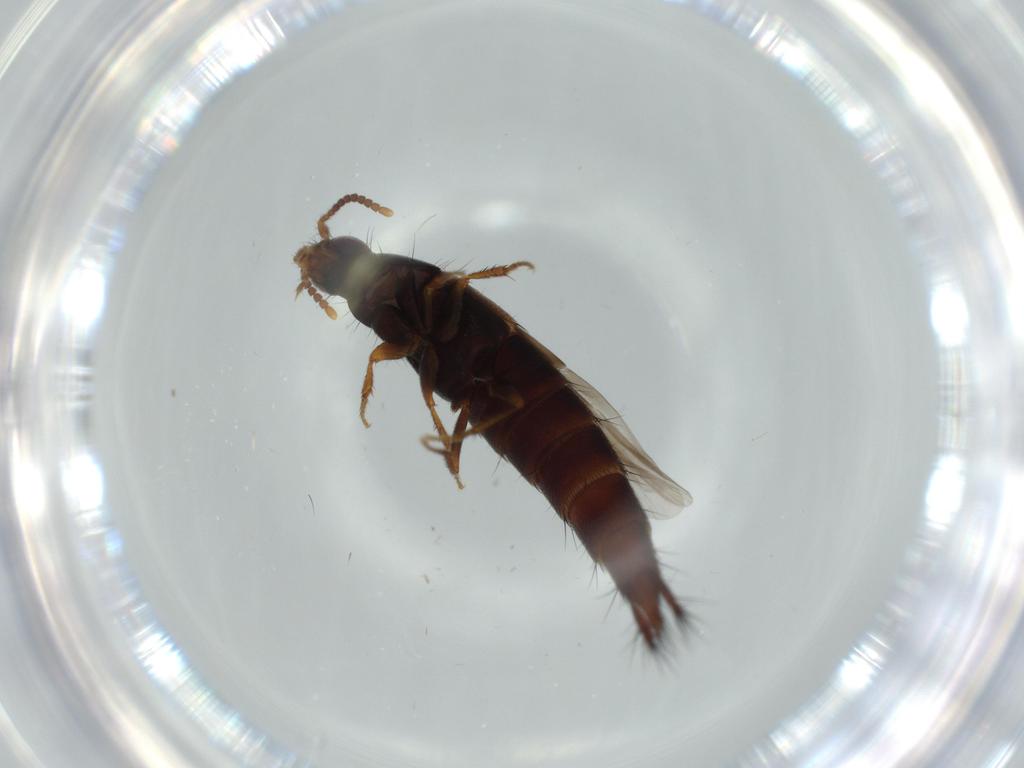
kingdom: Animalia
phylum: Arthropoda
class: Insecta
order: Coleoptera
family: Staphylinidae
